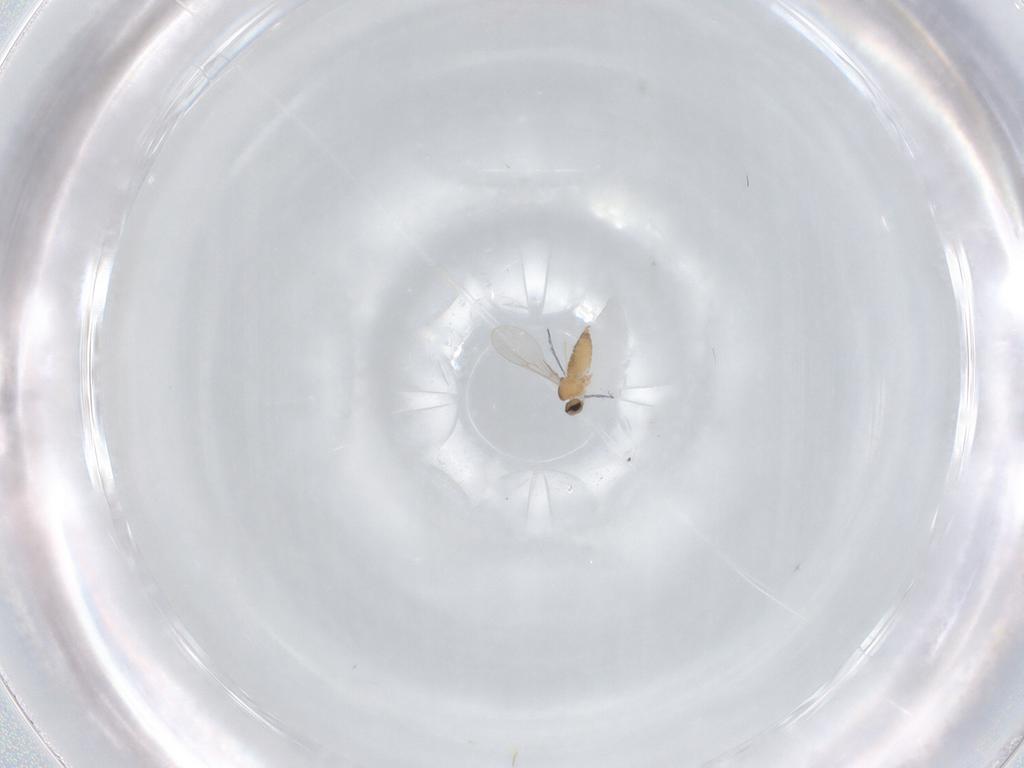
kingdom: Animalia
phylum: Arthropoda
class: Insecta
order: Diptera
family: Cecidomyiidae
